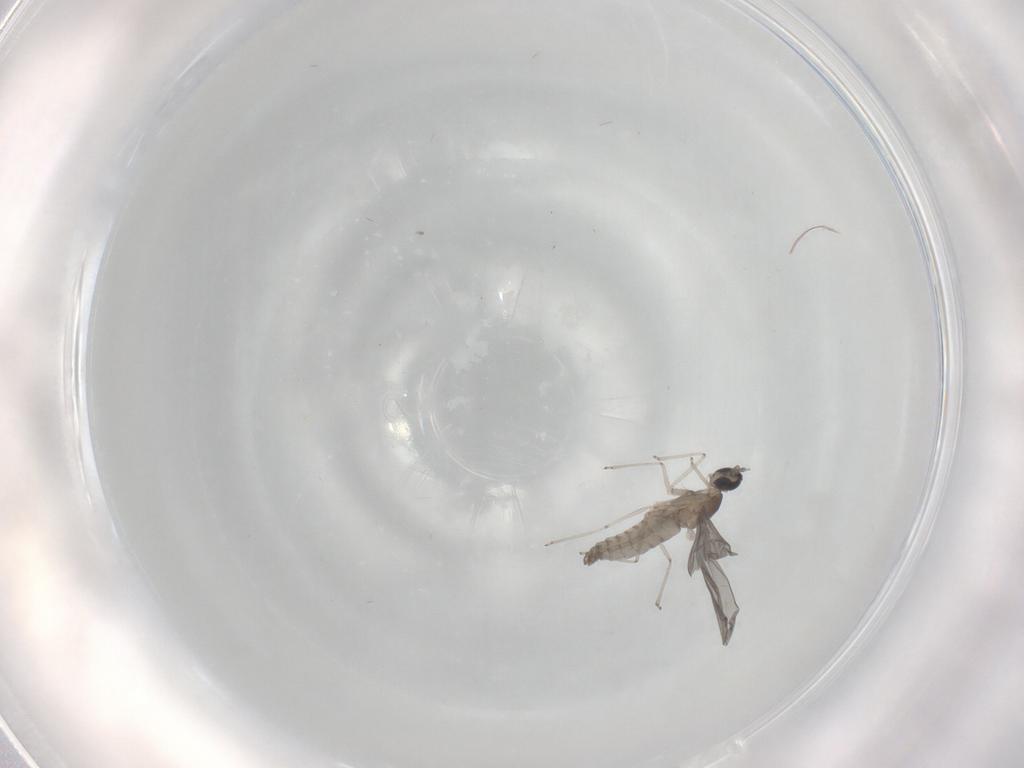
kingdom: Animalia
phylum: Arthropoda
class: Insecta
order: Diptera
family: Cecidomyiidae
